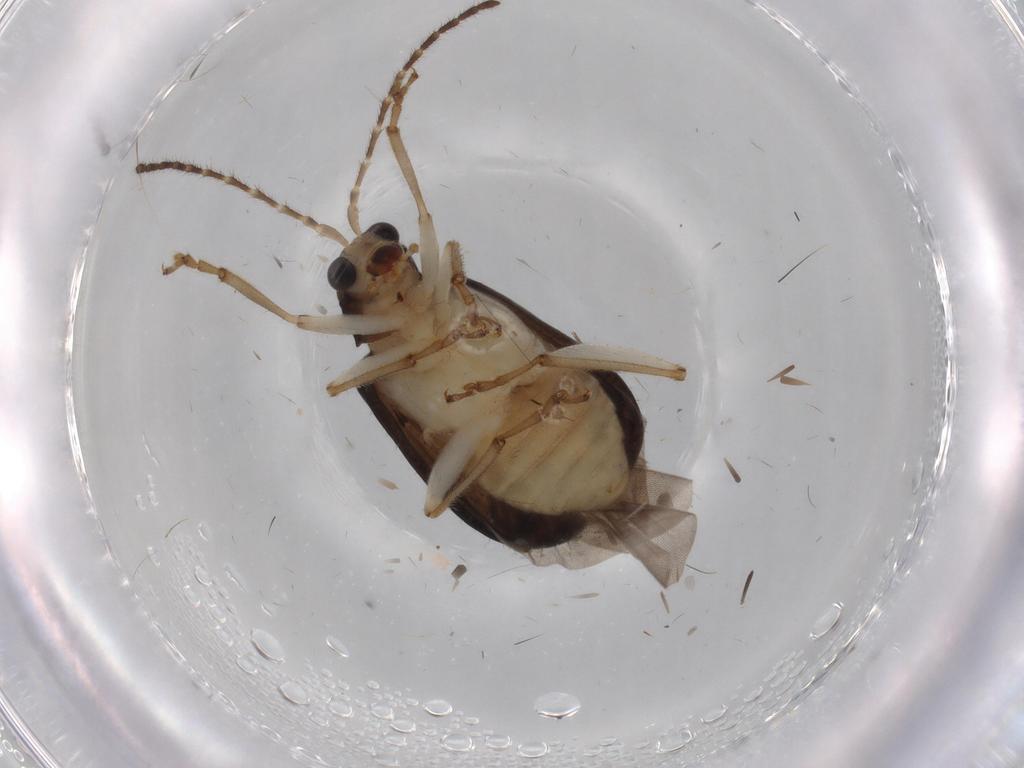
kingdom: Animalia
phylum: Arthropoda
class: Insecta
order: Coleoptera
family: Chrysomelidae
